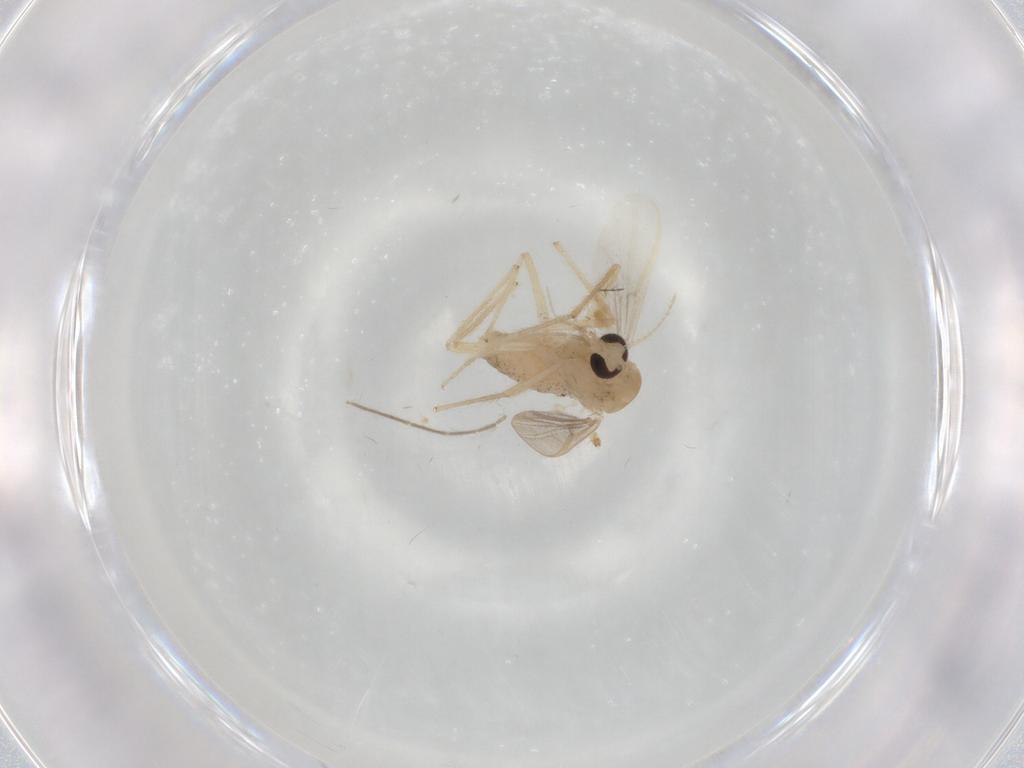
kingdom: Animalia
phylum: Arthropoda
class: Insecta
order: Diptera
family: Chironomidae
